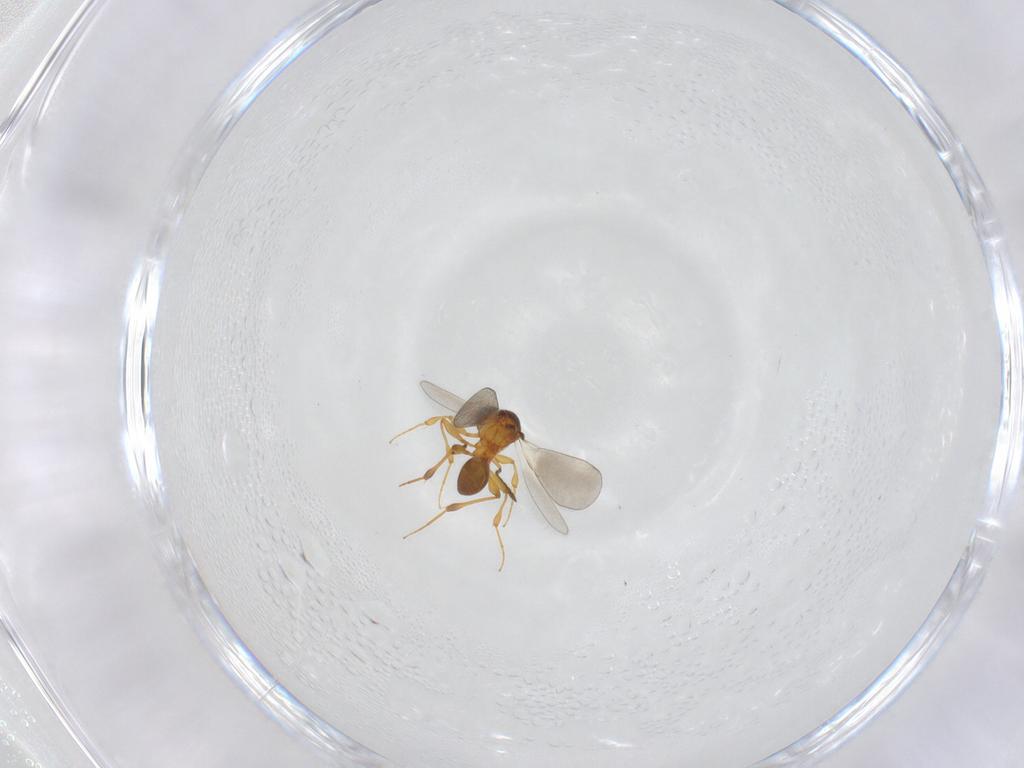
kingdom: Animalia
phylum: Arthropoda
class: Insecta
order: Hymenoptera
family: Platygastridae
